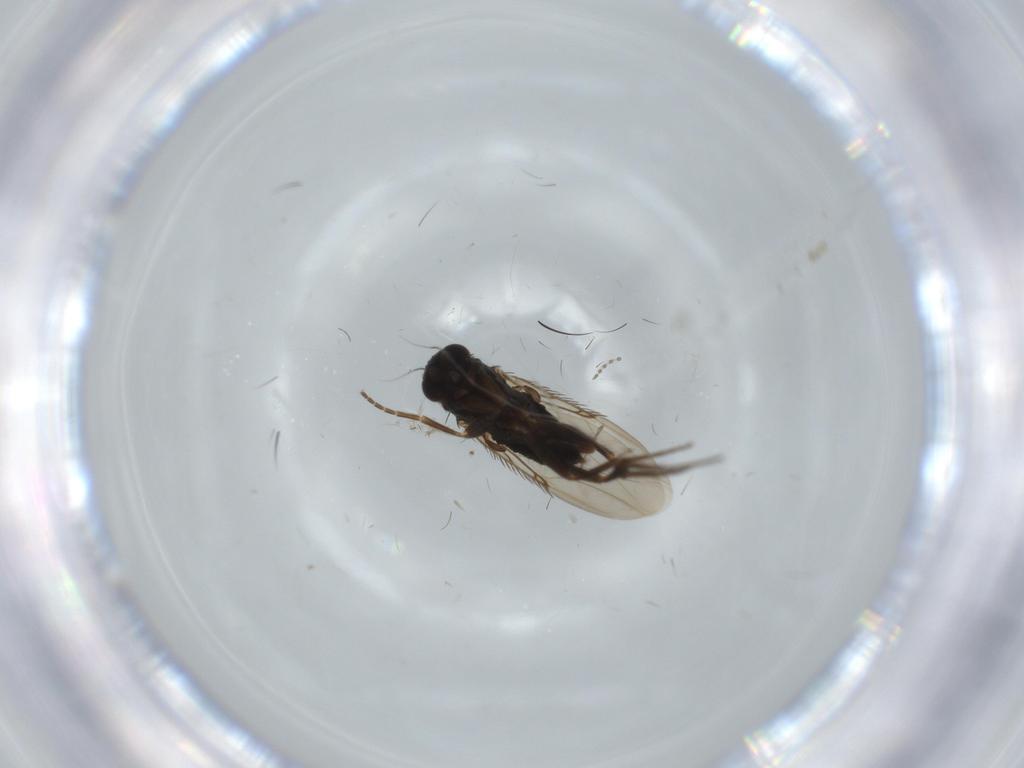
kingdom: Animalia
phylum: Arthropoda
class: Insecta
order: Diptera
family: Phoridae
